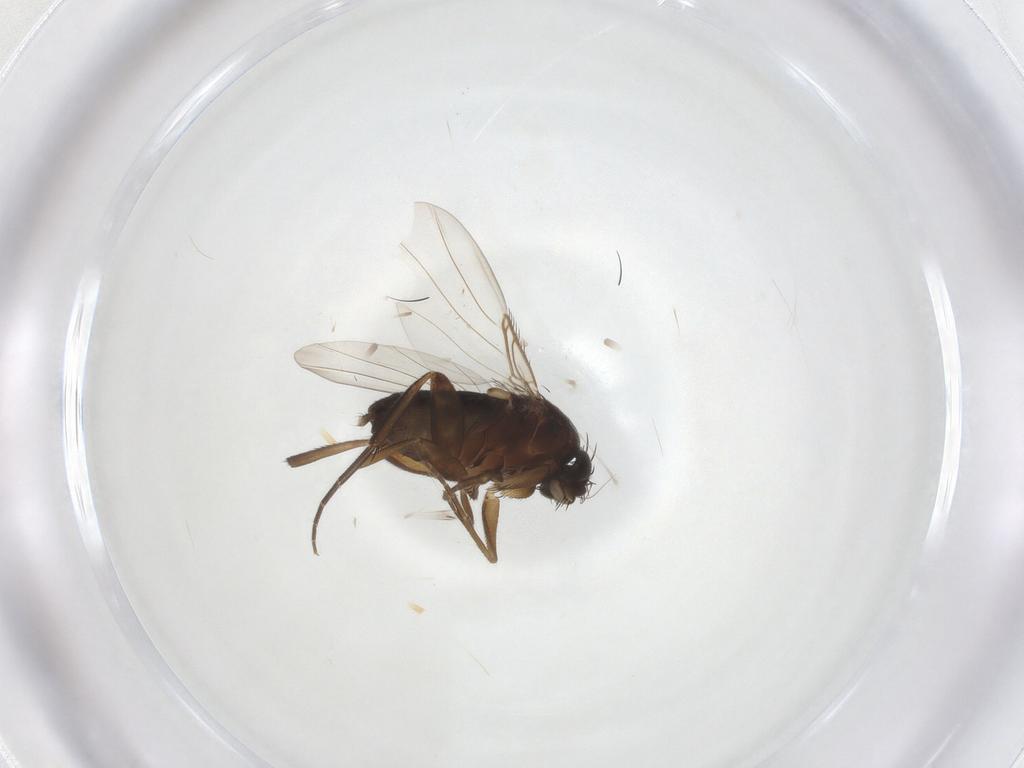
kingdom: Animalia
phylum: Arthropoda
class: Insecta
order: Diptera
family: Phoridae
